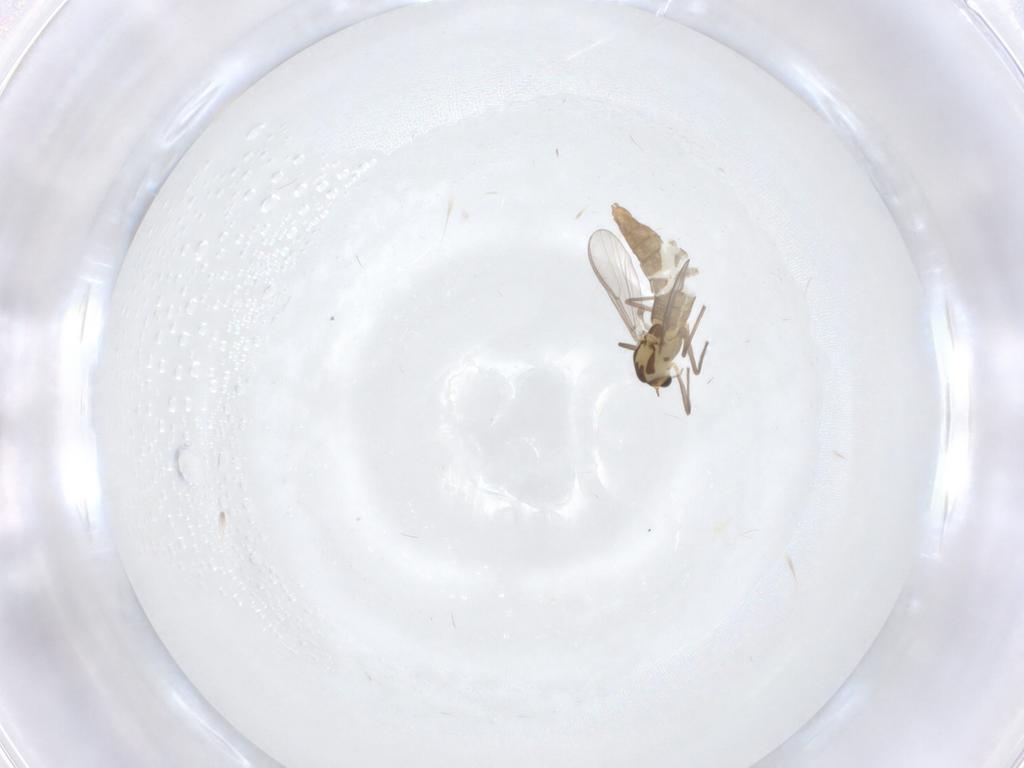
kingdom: Animalia
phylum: Arthropoda
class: Insecta
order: Diptera
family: Chironomidae
